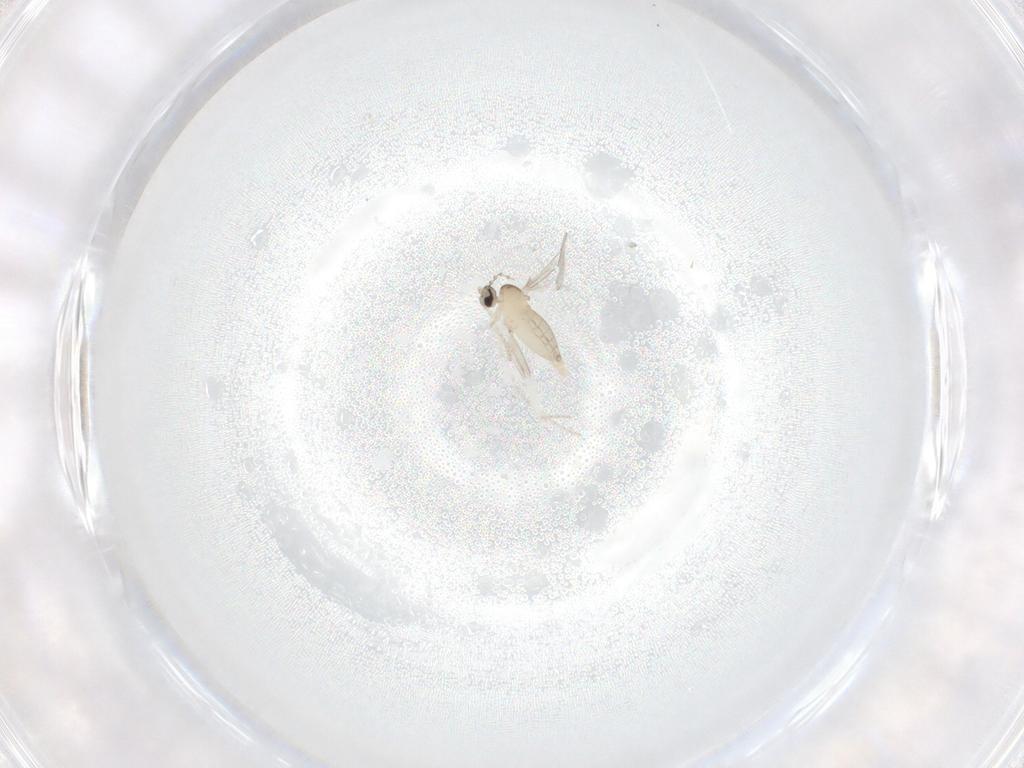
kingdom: Animalia
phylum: Arthropoda
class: Insecta
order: Diptera
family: Cecidomyiidae
